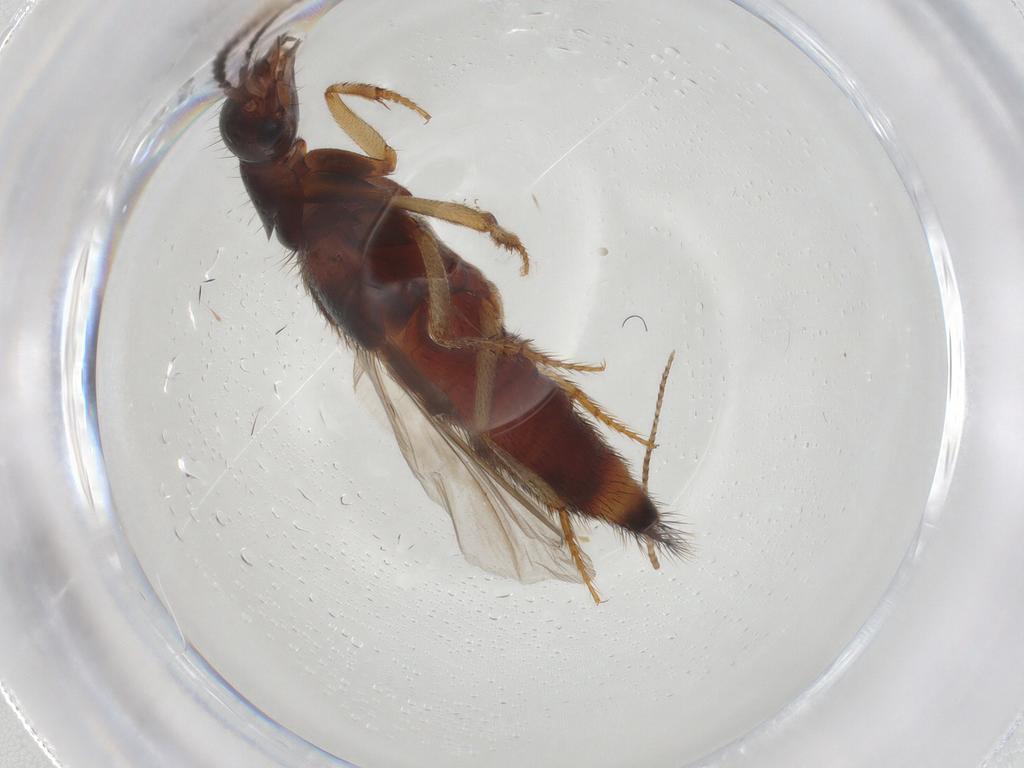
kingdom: Animalia
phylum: Arthropoda
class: Insecta
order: Coleoptera
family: Staphylinidae
